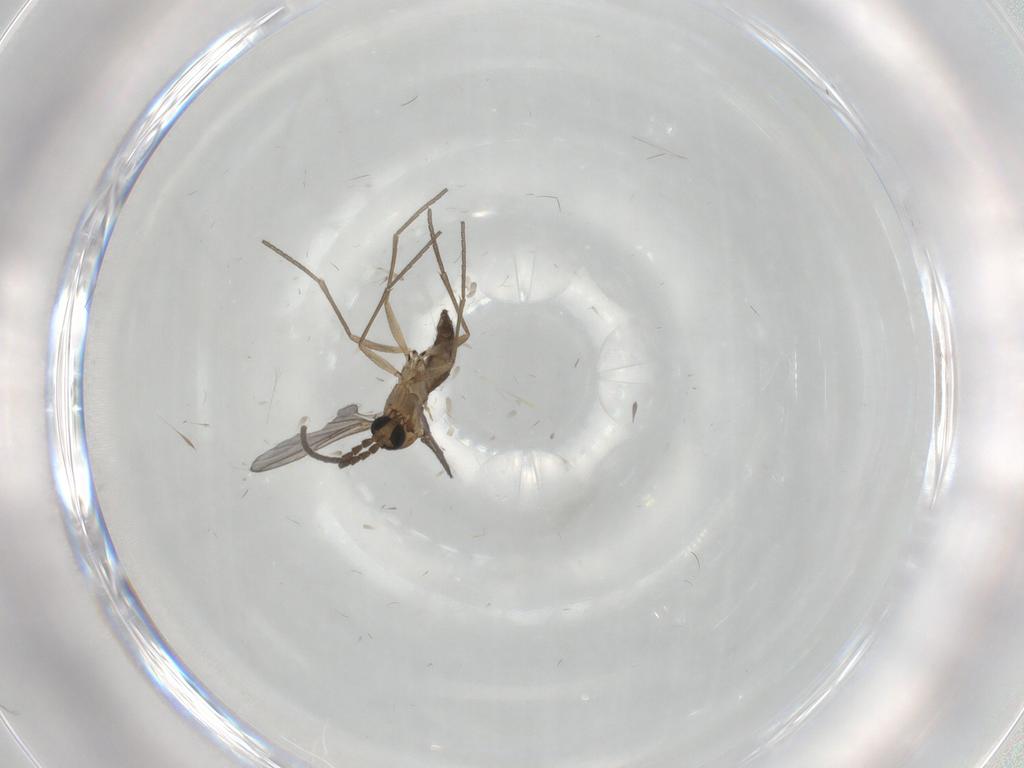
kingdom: Animalia
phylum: Arthropoda
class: Insecta
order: Diptera
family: Sciaridae
